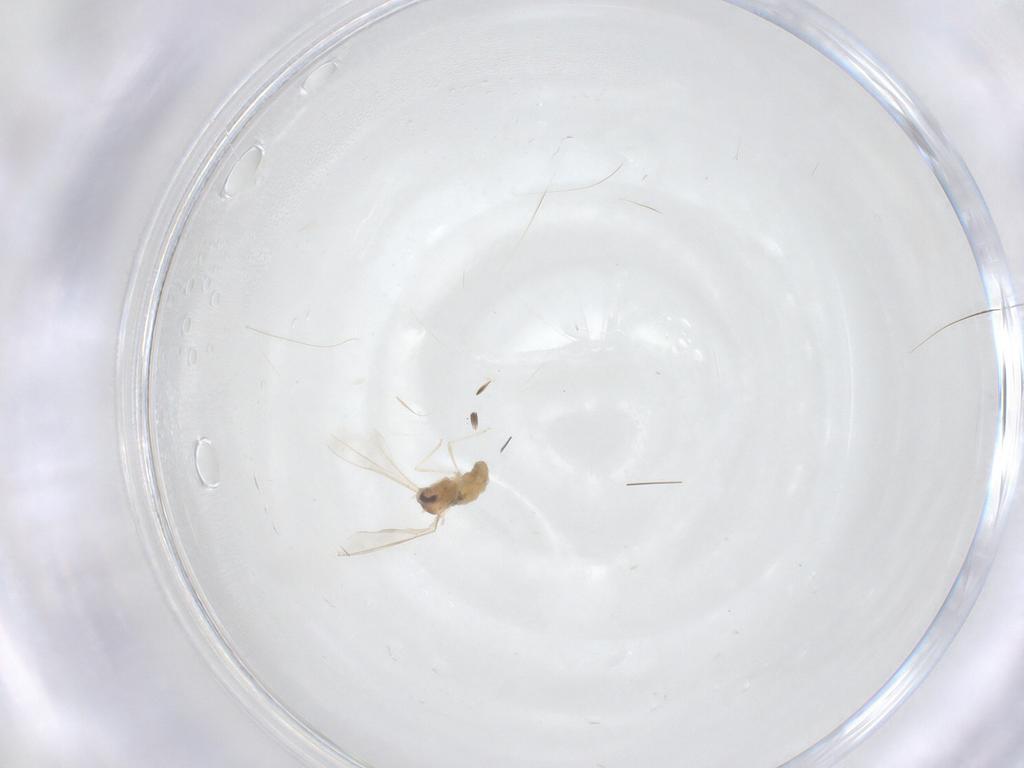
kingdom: Animalia
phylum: Arthropoda
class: Insecta
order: Diptera
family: Cecidomyiidae
